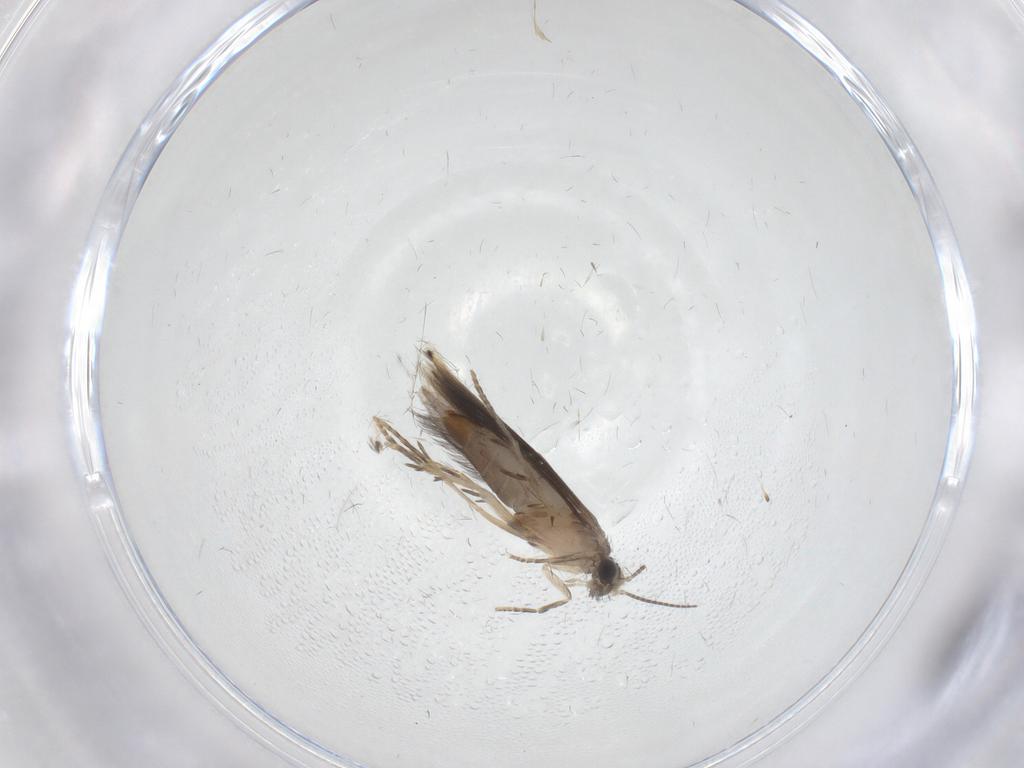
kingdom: Animalia
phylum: Arthropoda
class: Insecta
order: Trichoptera
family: Hydroptilidae
